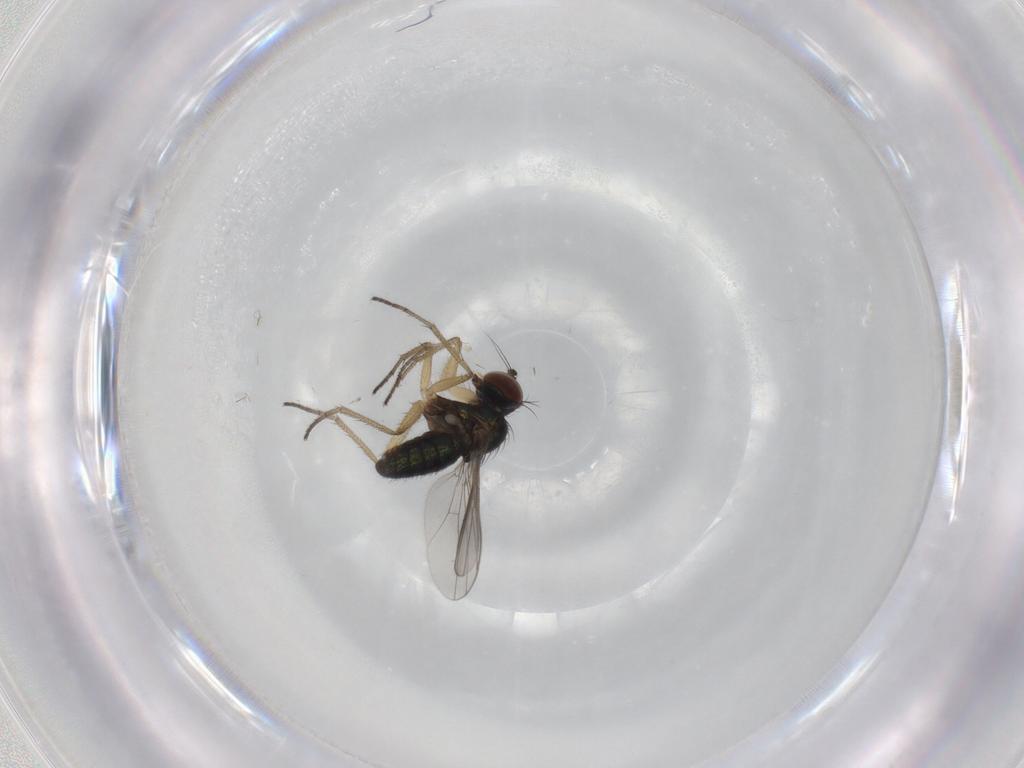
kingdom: Animalia
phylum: Arthropoda
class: Insecta
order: Diptera
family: Dolichopodidae
